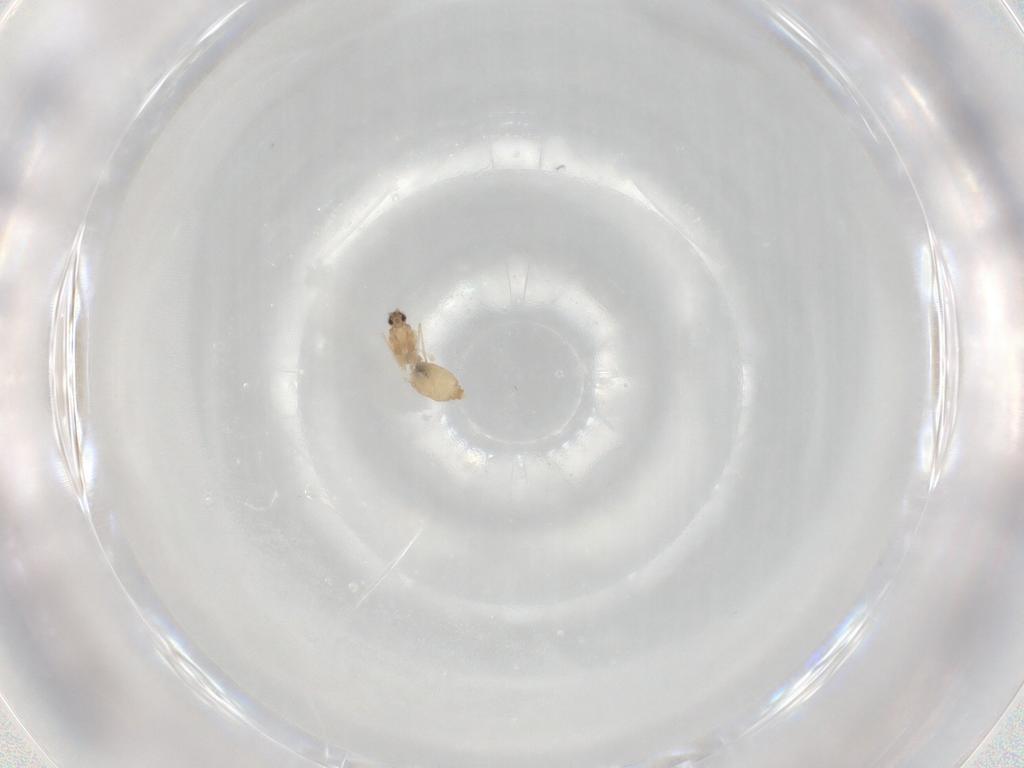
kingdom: Animalia
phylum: Arthropoda
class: Insecta
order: Diptera
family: Cecidomyiidae
